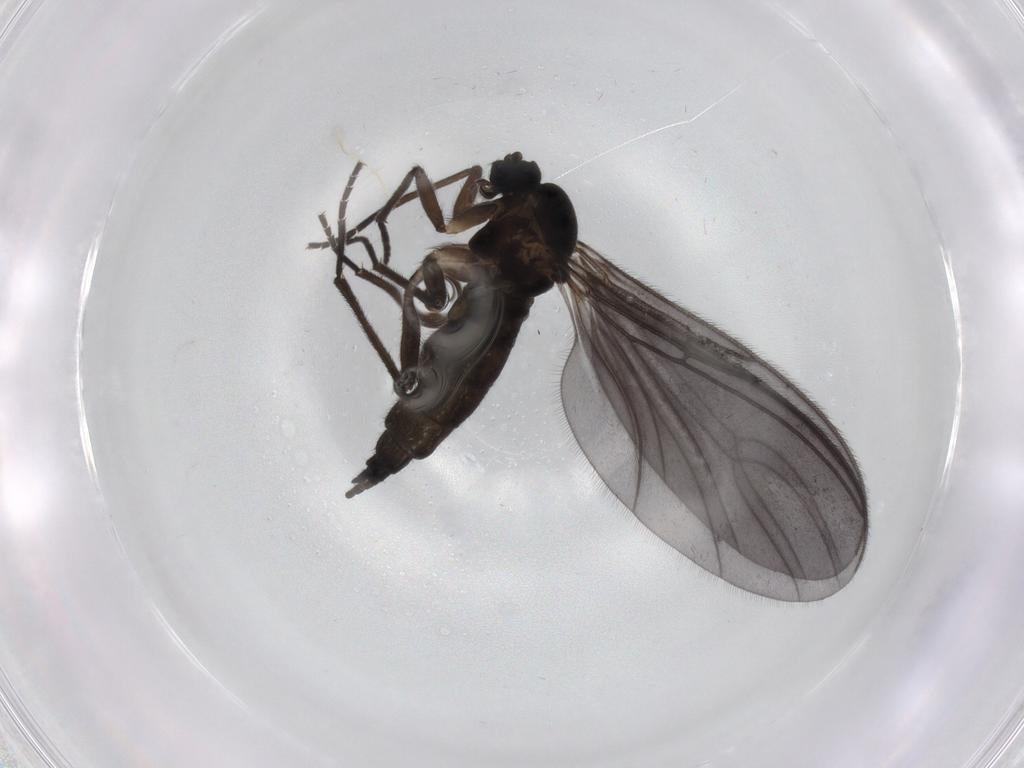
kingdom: Animalia
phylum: Arthropoda
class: Insecta
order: Diptera
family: Sciaridae
